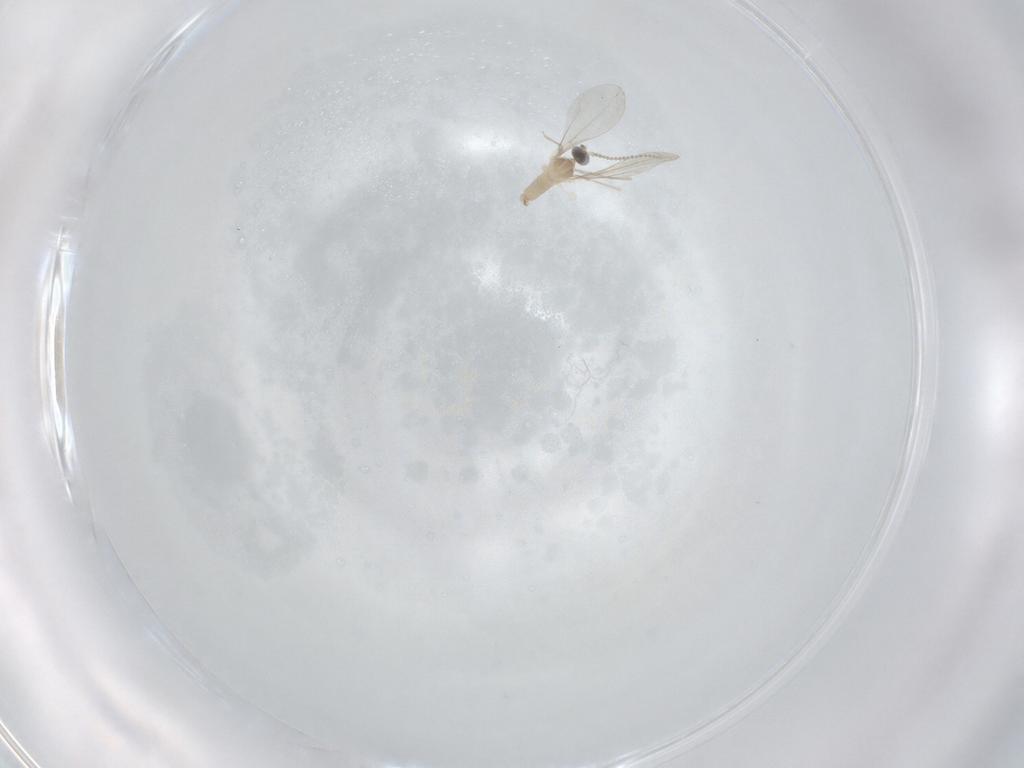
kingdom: Animalia
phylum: Arthropoda
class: Insecta
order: Diptera
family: Cecidomyiidae
